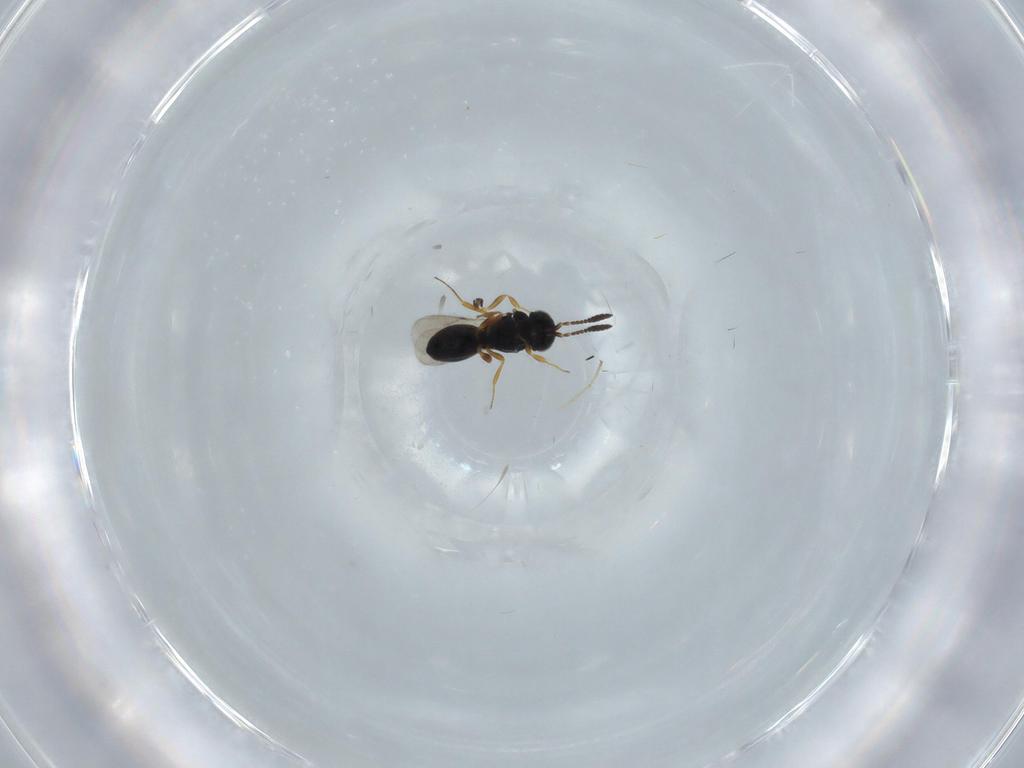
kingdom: Animalia
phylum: Arthropoda
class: Insecta
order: Hymenoptera
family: Scelionidae
